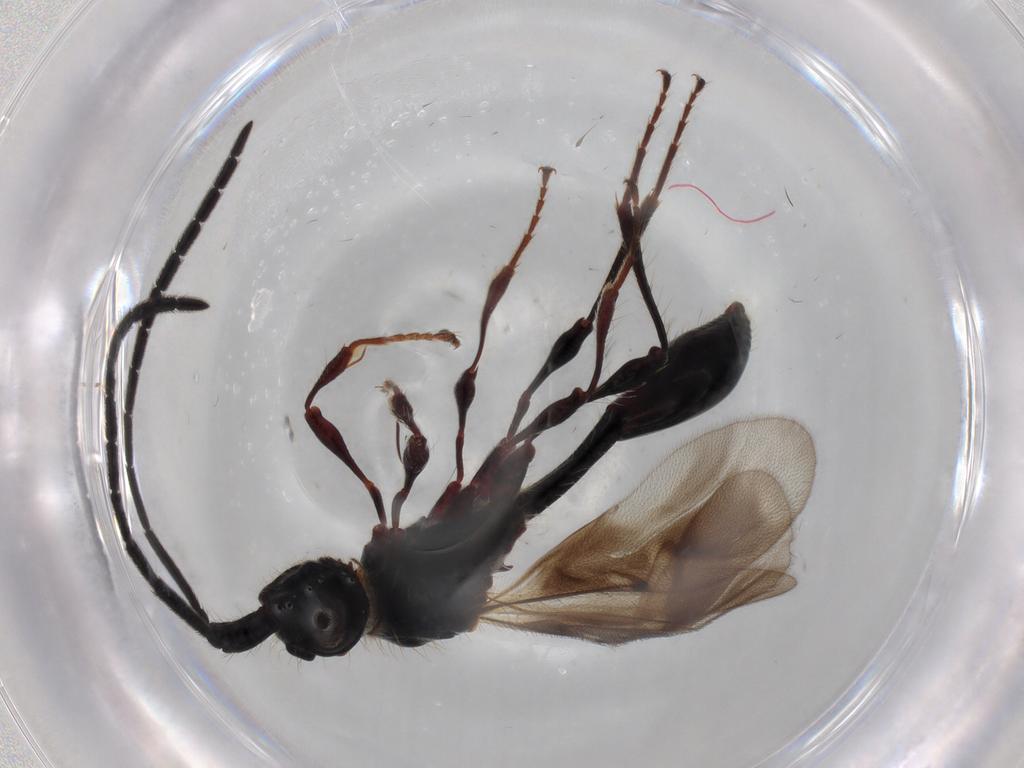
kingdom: Animalia
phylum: Arthropoda
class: Insecta
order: Hymenoptera
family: Diapriidae
